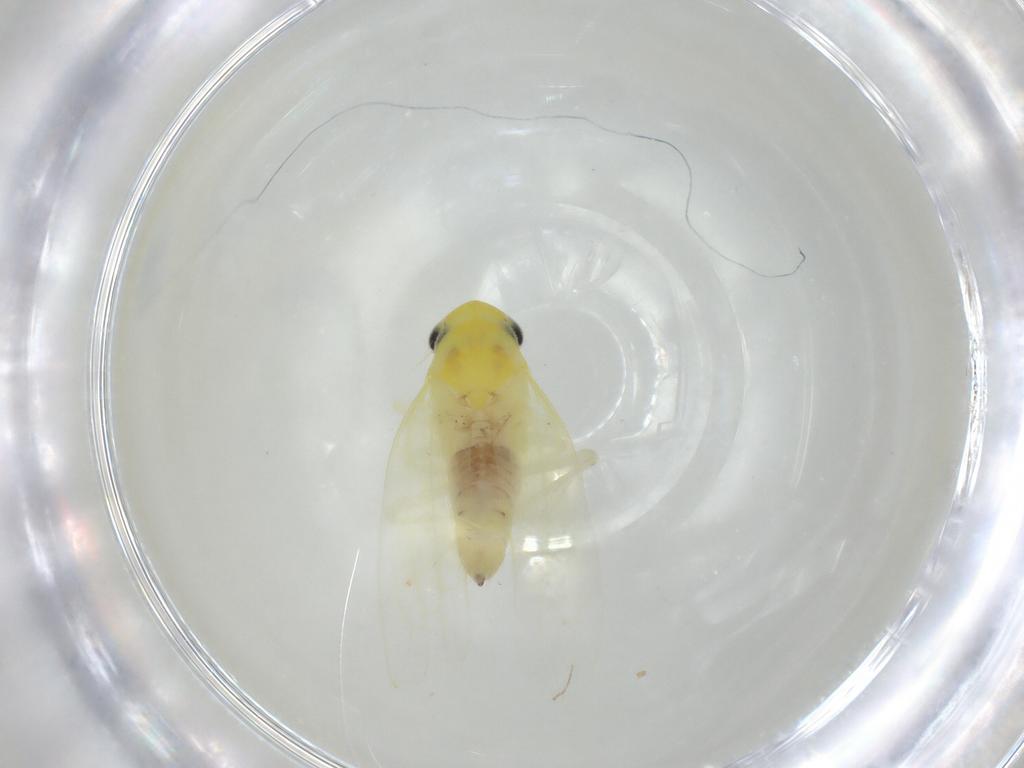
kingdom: Animalia
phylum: Arthropoda
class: Insecta
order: Hemiptera
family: Cicadellidae
